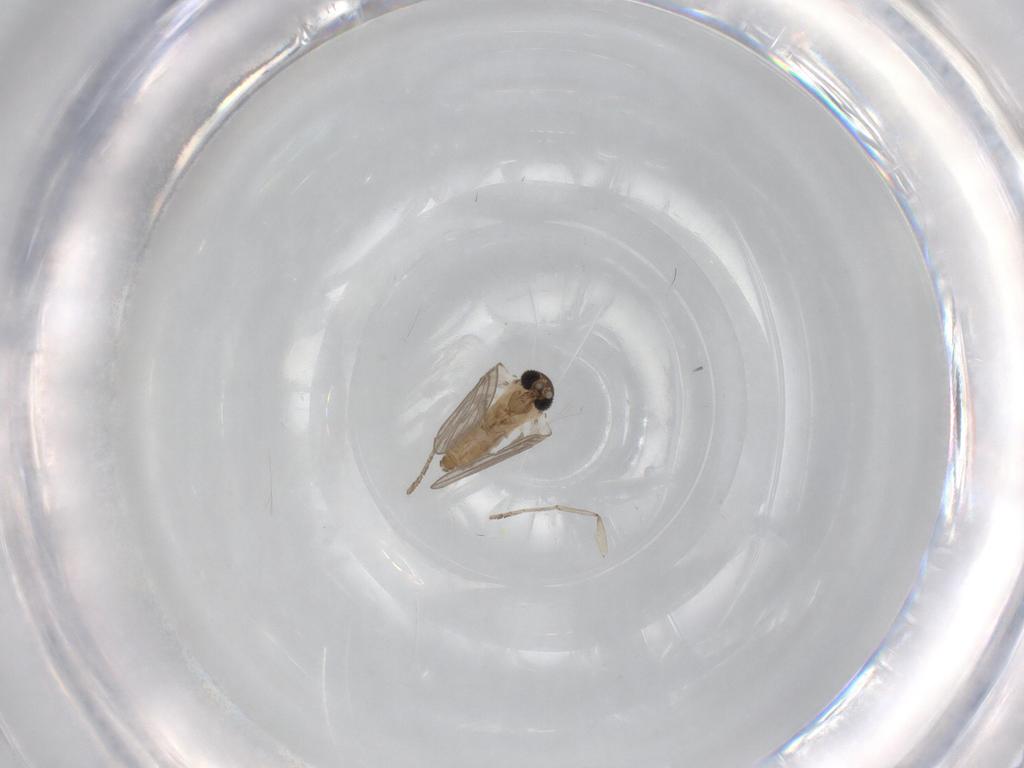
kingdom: Animalia
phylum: Arthropoda
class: Insecta
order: Diptera
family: Psychodidae
